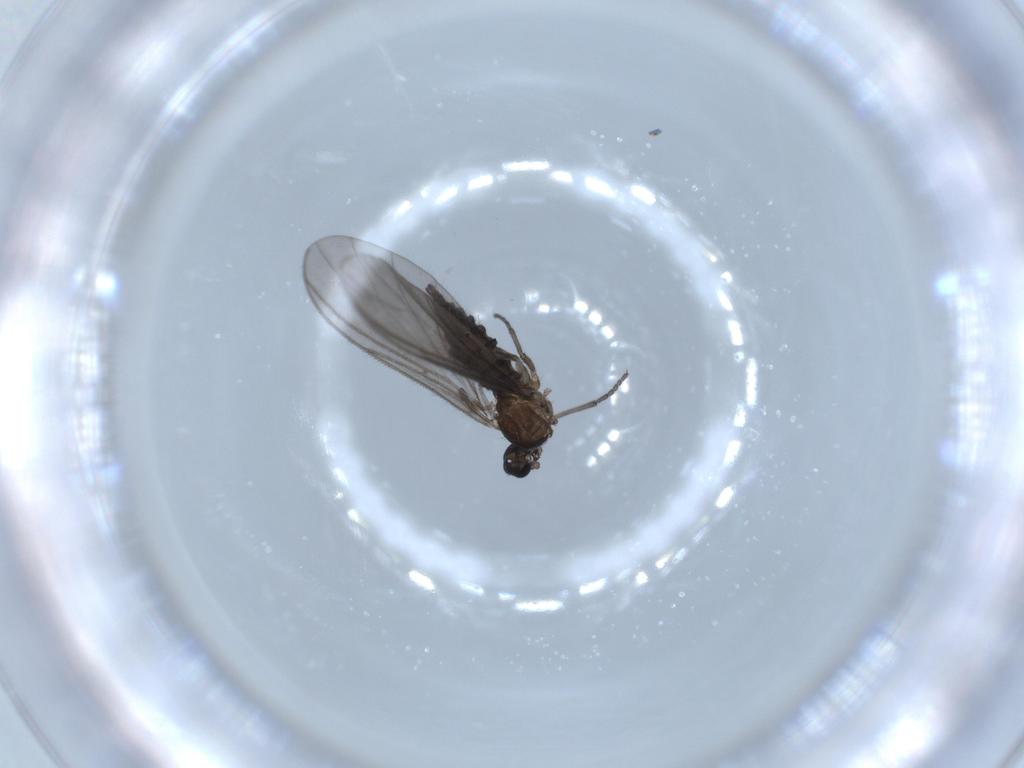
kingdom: Animalia
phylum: Arthropoda
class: Insecta
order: Diptera
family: Sciaridae
